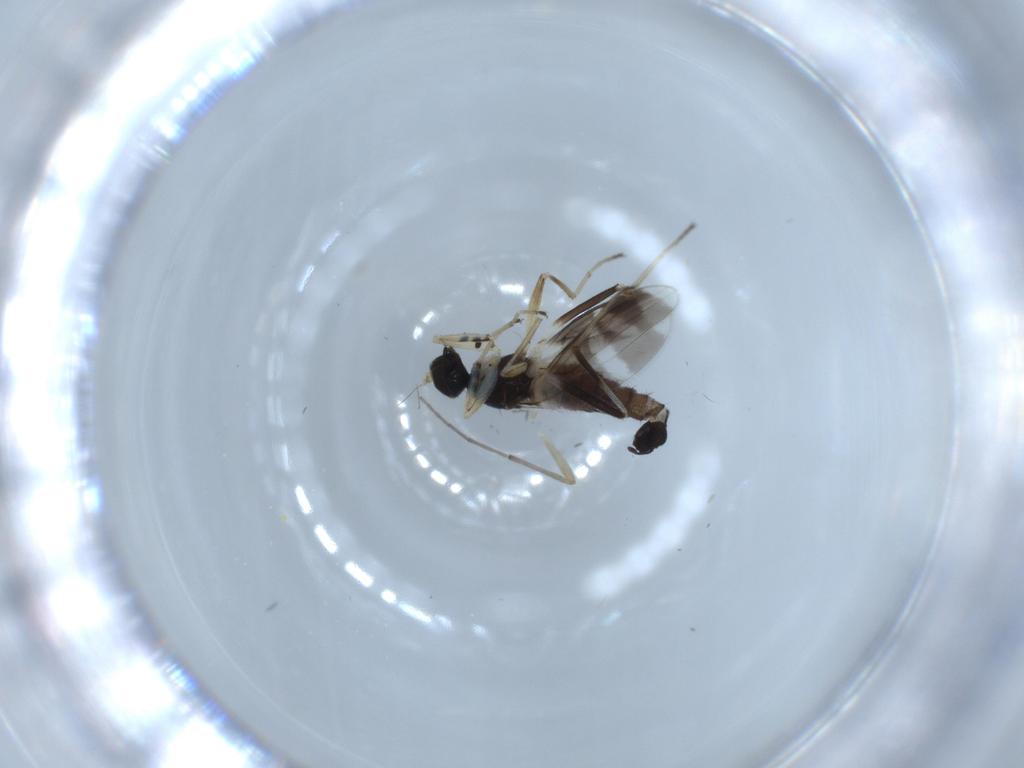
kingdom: Animalia
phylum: Arthropoda
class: Insecta
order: Diptera
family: Hybotidae
